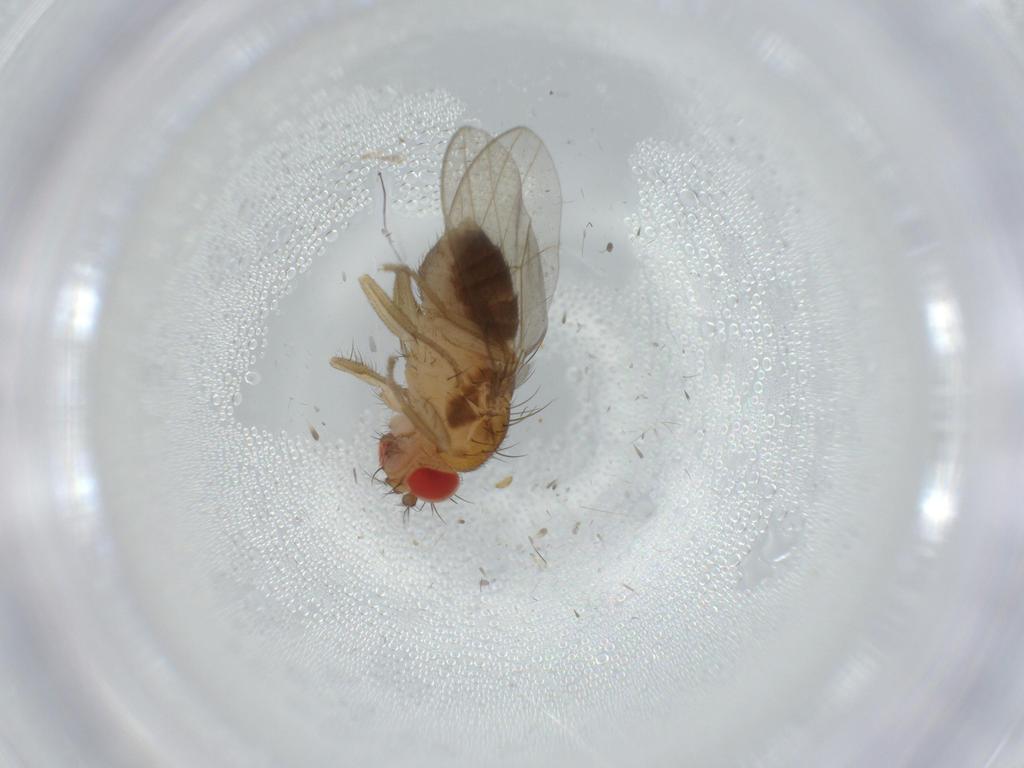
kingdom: Animalia
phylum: Arthropoda
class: Insecta
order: Diptera
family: Drosophilidae
